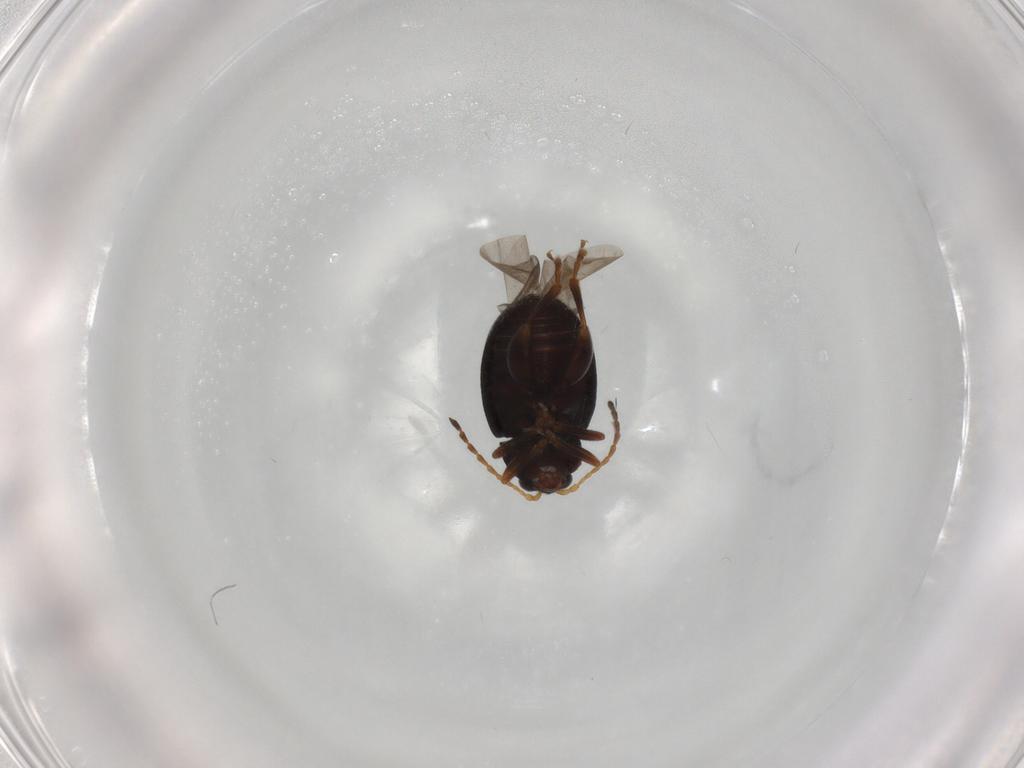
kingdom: Animalia
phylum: Arthropoda
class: Insecta
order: Coleoptera
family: Chrysomelidae
